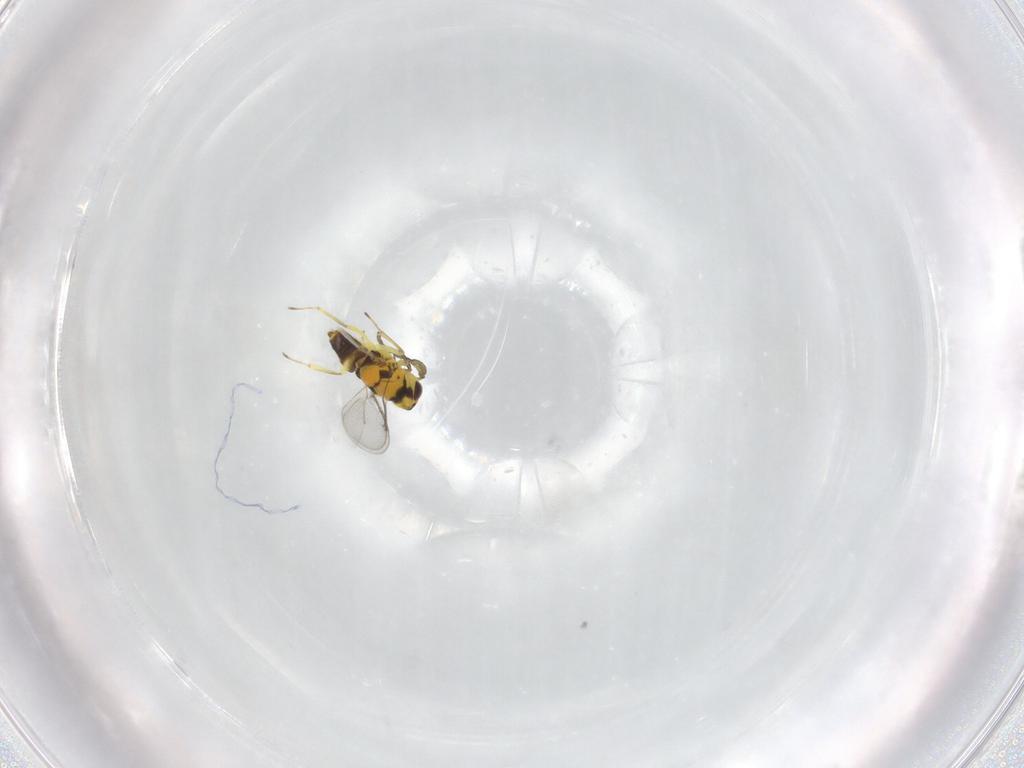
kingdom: Animalia
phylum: Arthropoda
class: Insecta
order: Hymenoptera
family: Aphelinidae
